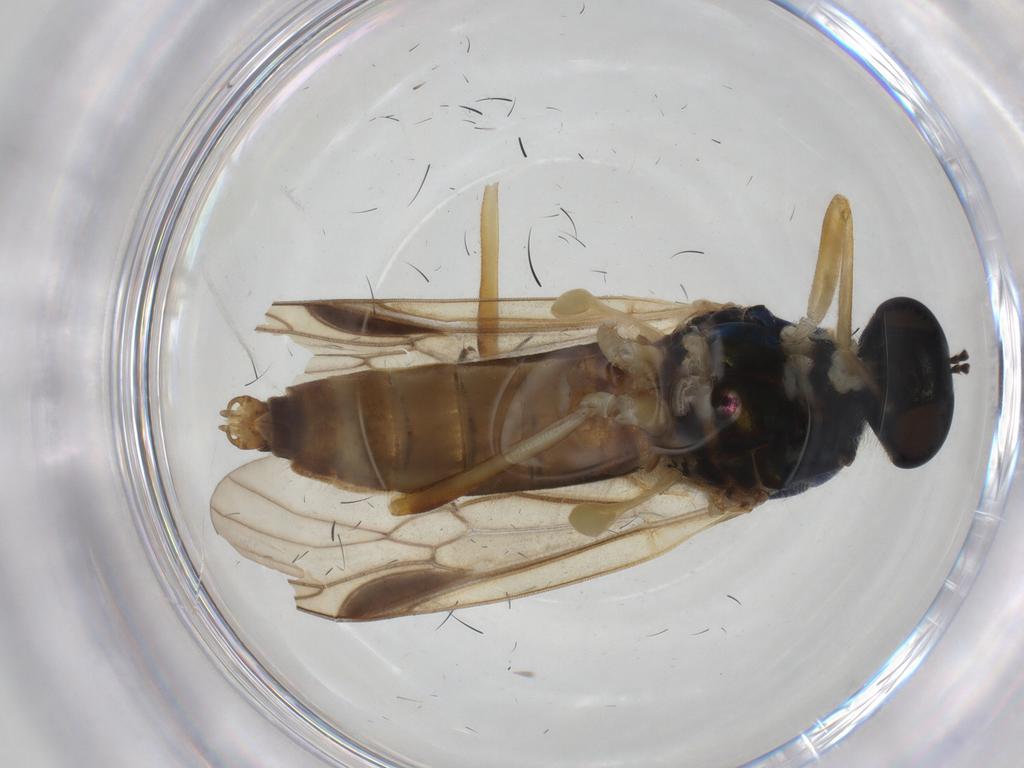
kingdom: Animalia
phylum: Arthropoda
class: Insecta
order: Diptera
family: Stratiomyidae
